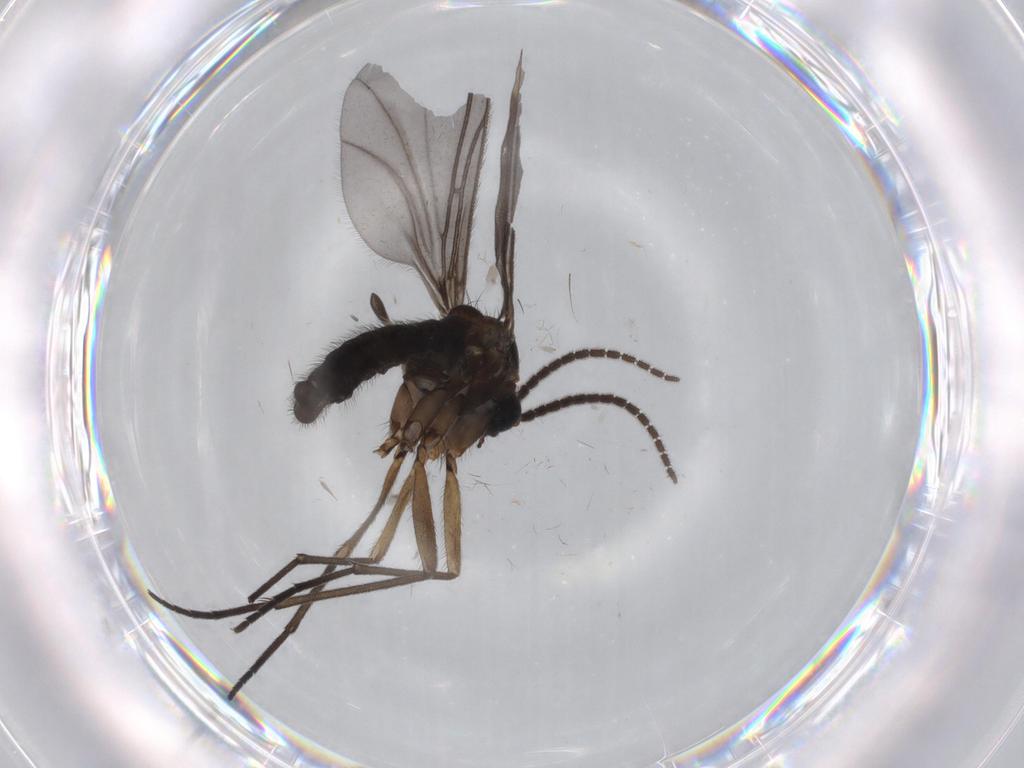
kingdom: Animalia
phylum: Arthropoda
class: Insecta
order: Diptera
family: Sciaridae
